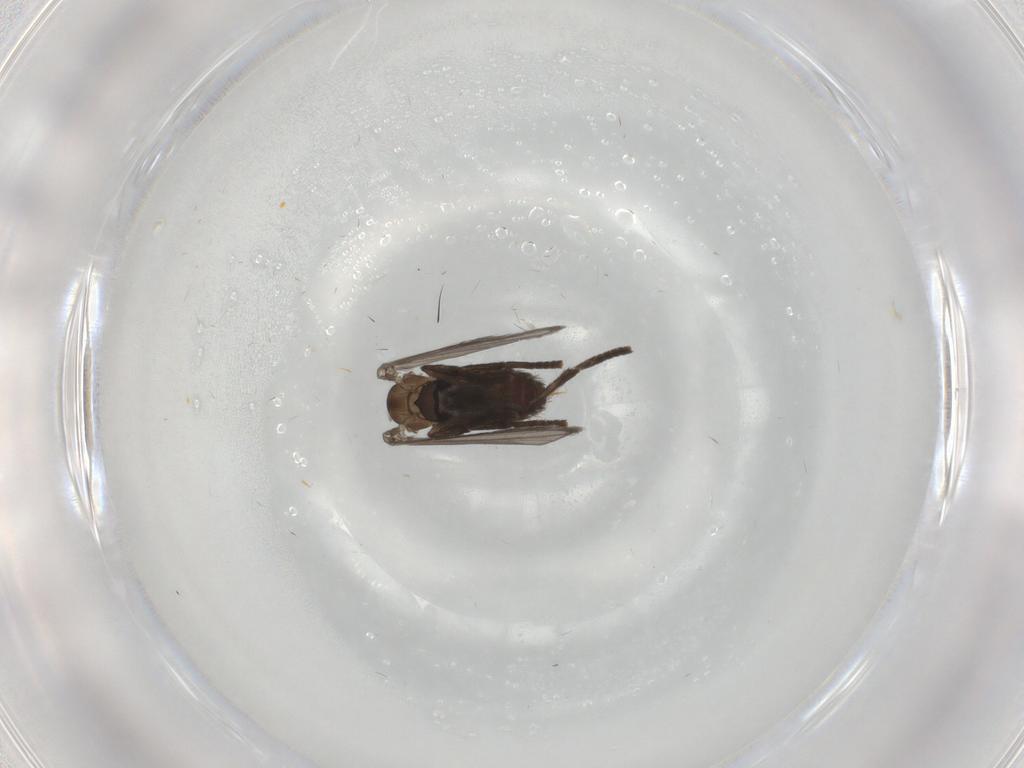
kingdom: Animalia
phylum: Arthropoda
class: Insecta
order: Diptera
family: Psychodidae
